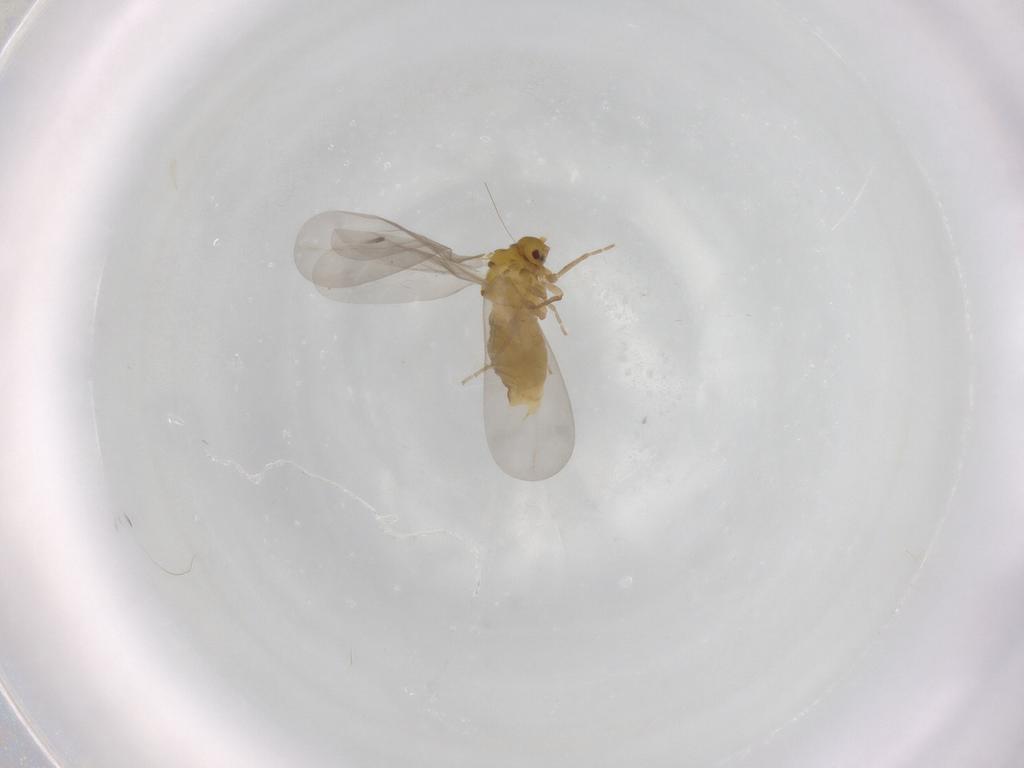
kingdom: Animalia
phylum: Arthropoda
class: Insecta
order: Hemiptera
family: Aleyrodidae
